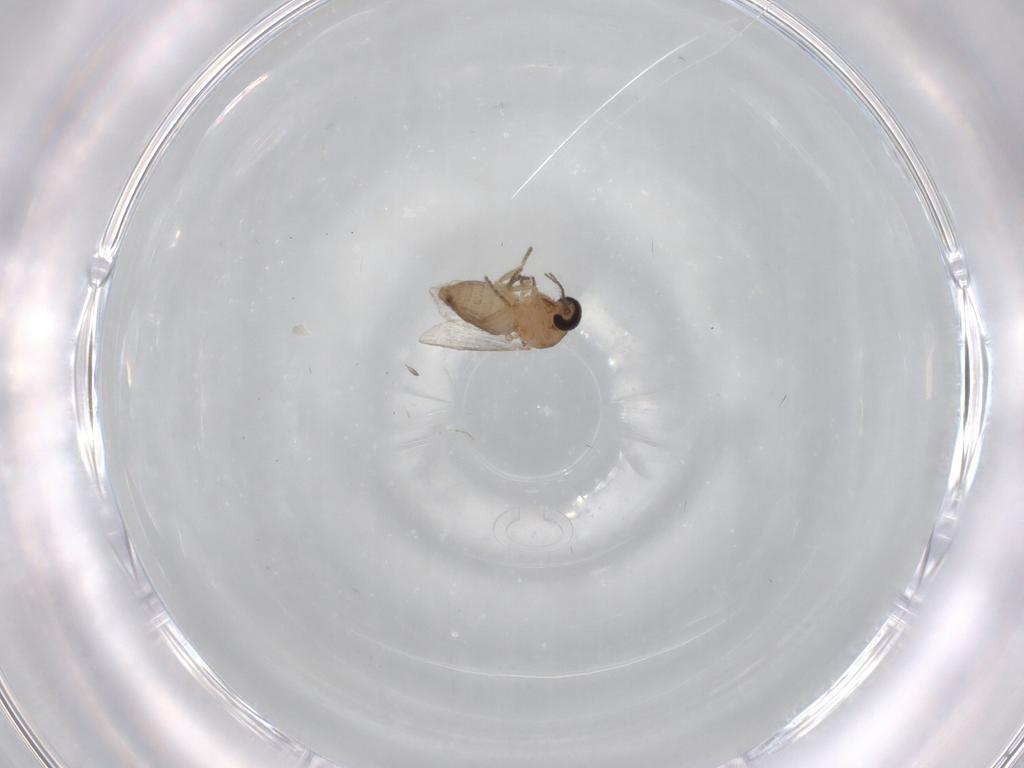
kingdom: Animalia
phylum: Arthropoda
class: Insecta
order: Diptera
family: Ceratopogonidae
